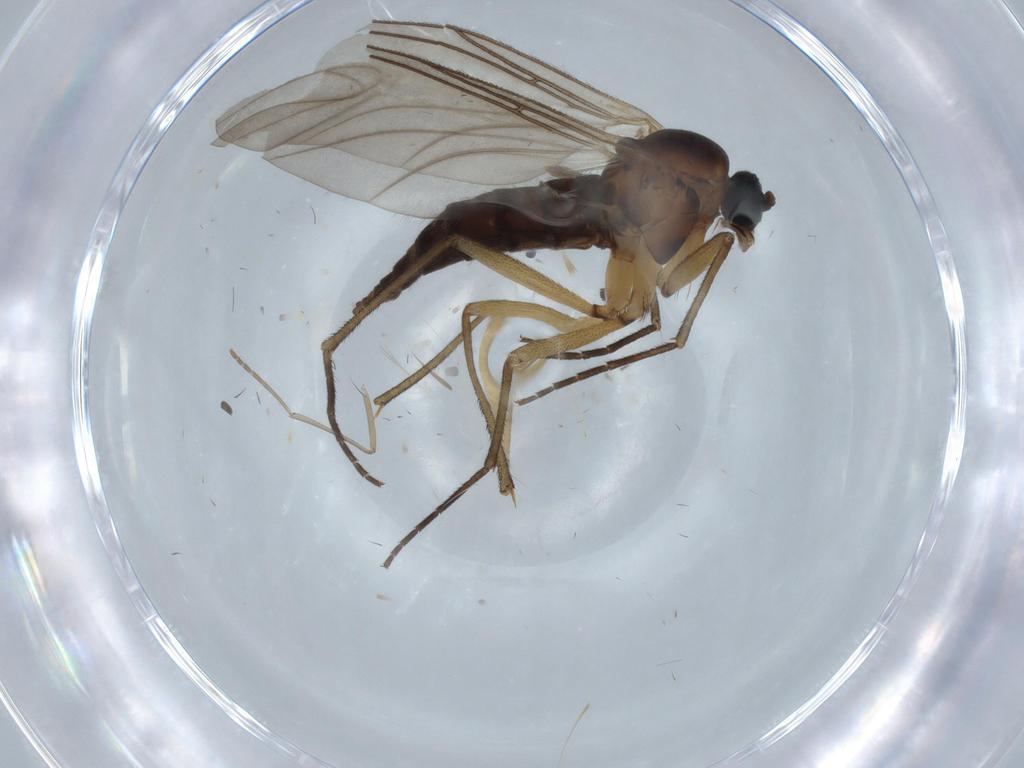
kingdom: Animalia
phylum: Arthropoda
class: Insecta
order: Diptera
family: Sciaridae
